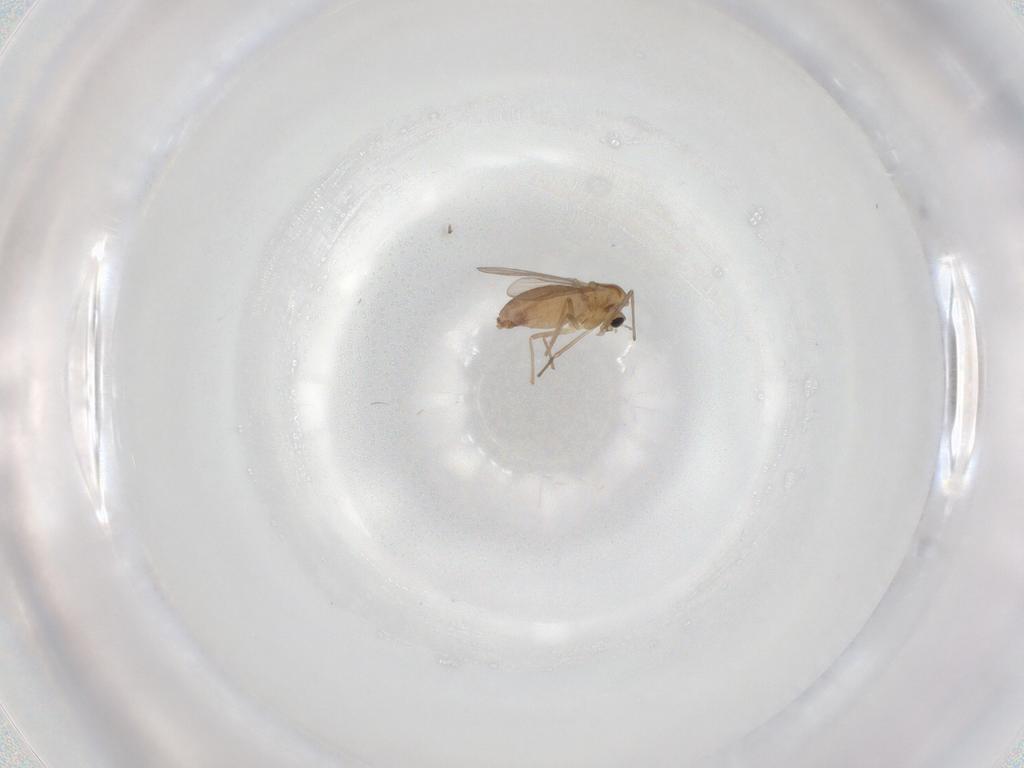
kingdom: Animalia
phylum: Arthropoda
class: Insecta
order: Diptera
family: Chironomidae
